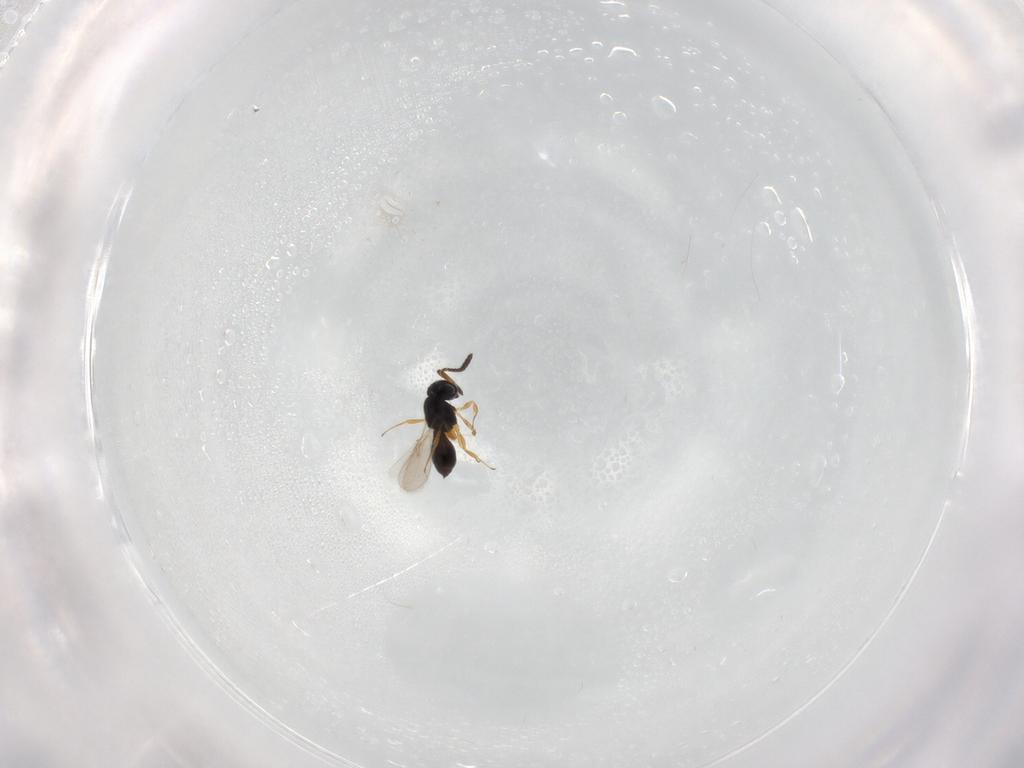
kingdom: Animalia
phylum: Arthropoda
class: Insecta
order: Hymenoptera
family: Scelionidae
